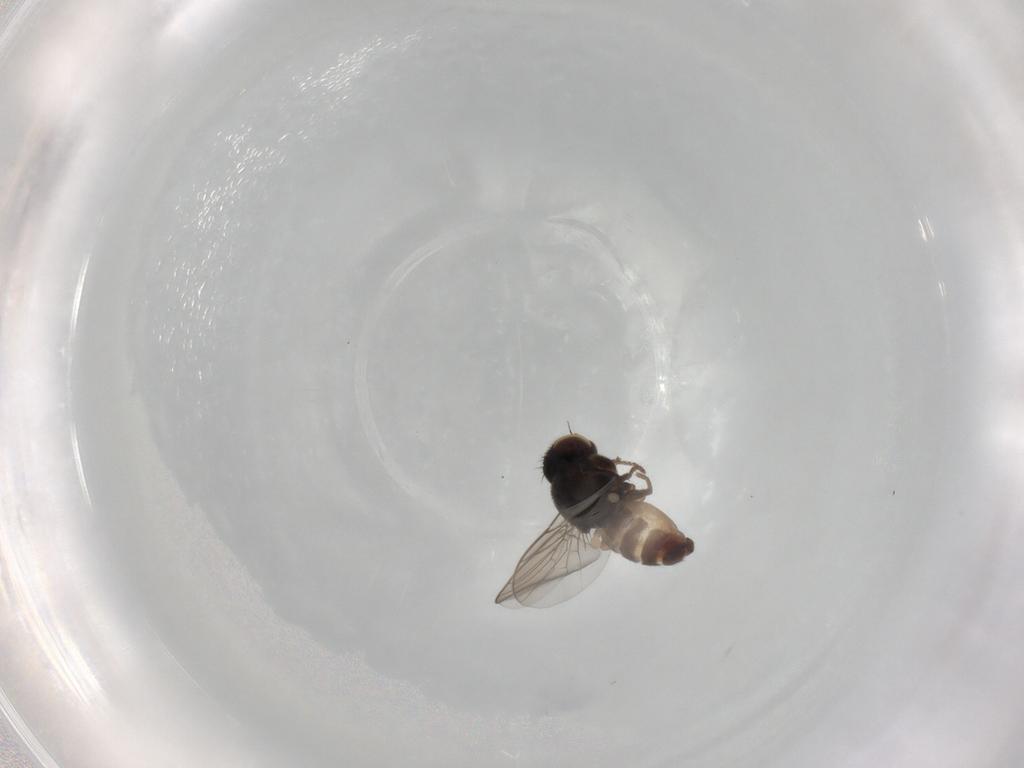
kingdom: Animalia
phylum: Arthropoda
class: Insecta
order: Diptera
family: Chloropidae
